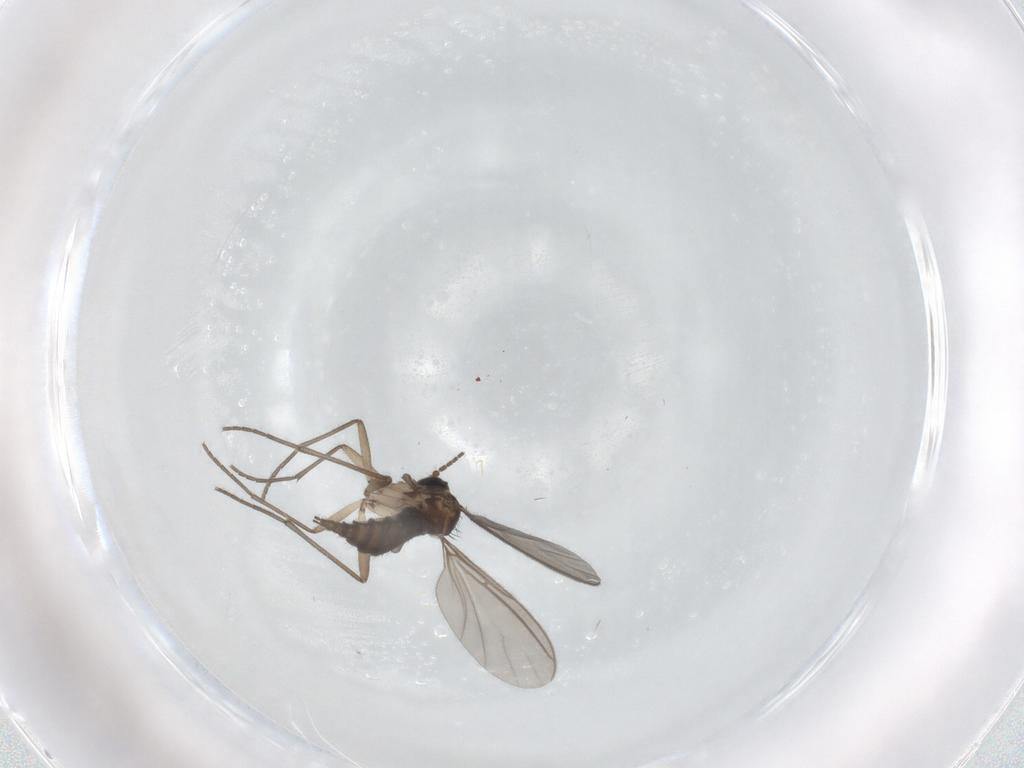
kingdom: Animalia
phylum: Arthropoda
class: Insecta
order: Diptera
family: Sciaridae
